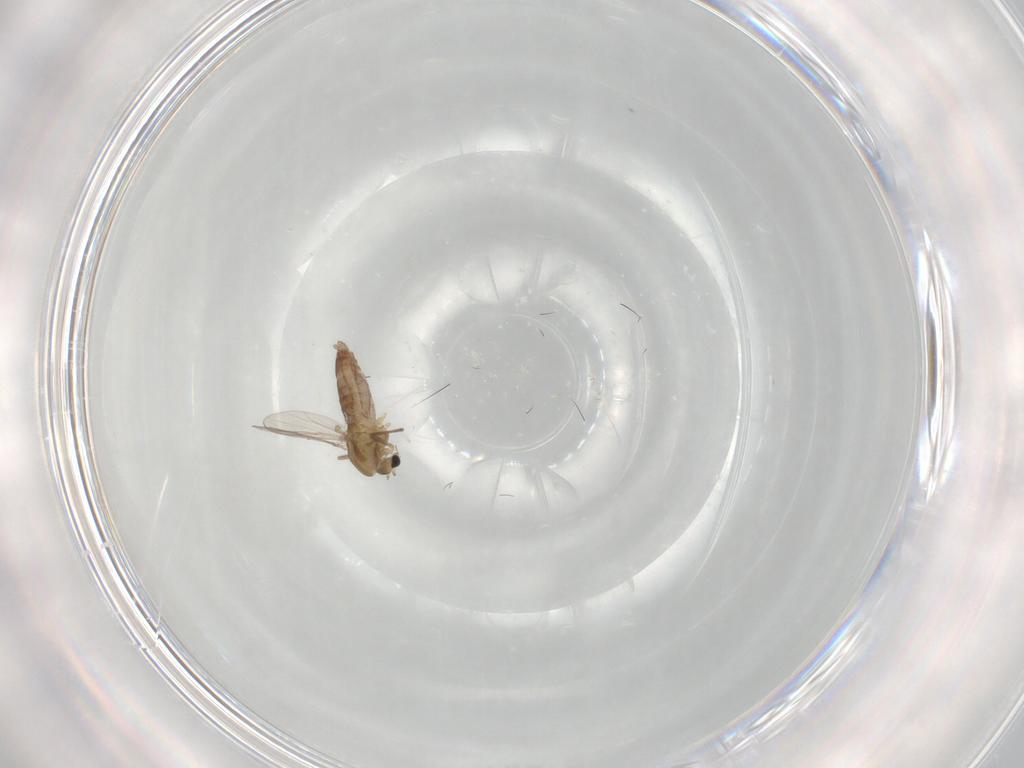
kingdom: Animalia
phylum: Arthropoda
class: Insecta
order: Diptera
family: Chironomidae
